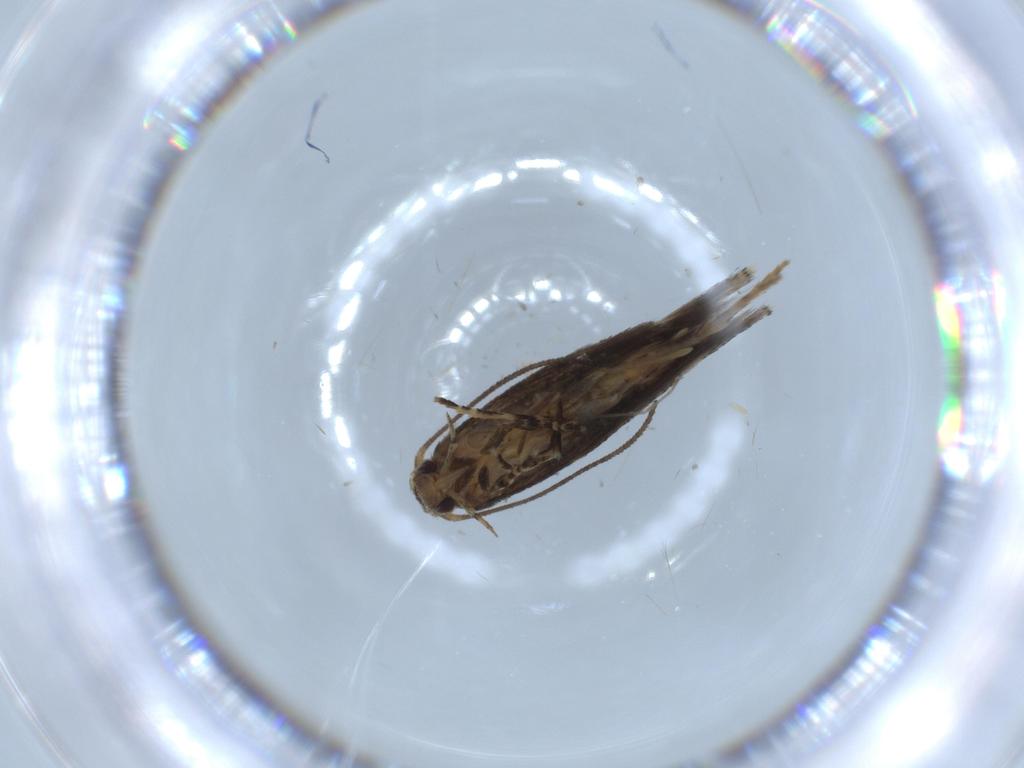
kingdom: Animalia
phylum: Arthropoda
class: Insecta
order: Lepidoptera
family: Elachistidae
